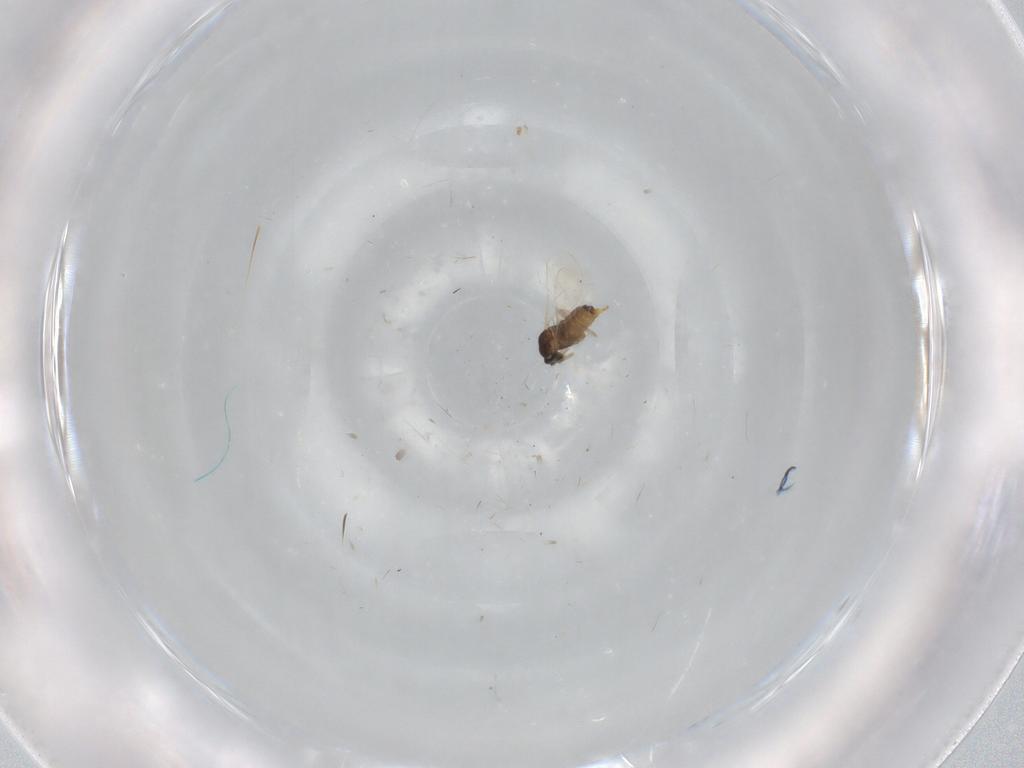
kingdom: Animalia
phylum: Arthropoda
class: Insecta
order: Diptera
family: Cecidomyiidae
